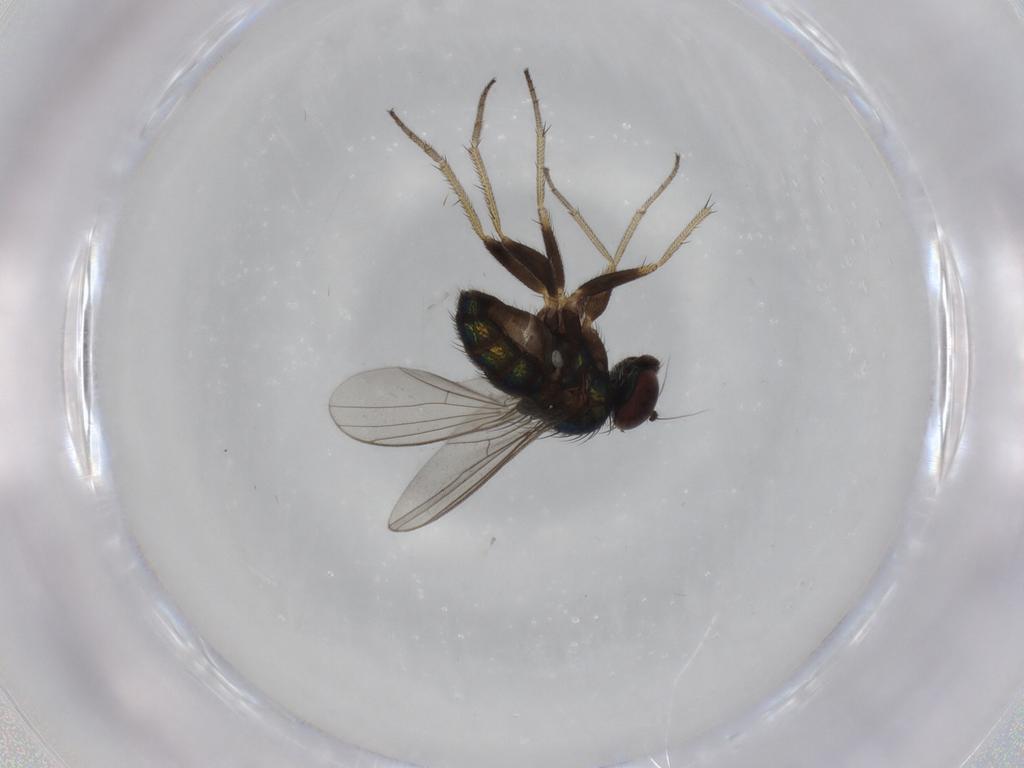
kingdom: Animalia
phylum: Arthropoda
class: Insecta
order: Diptera
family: Dolichopodidae
